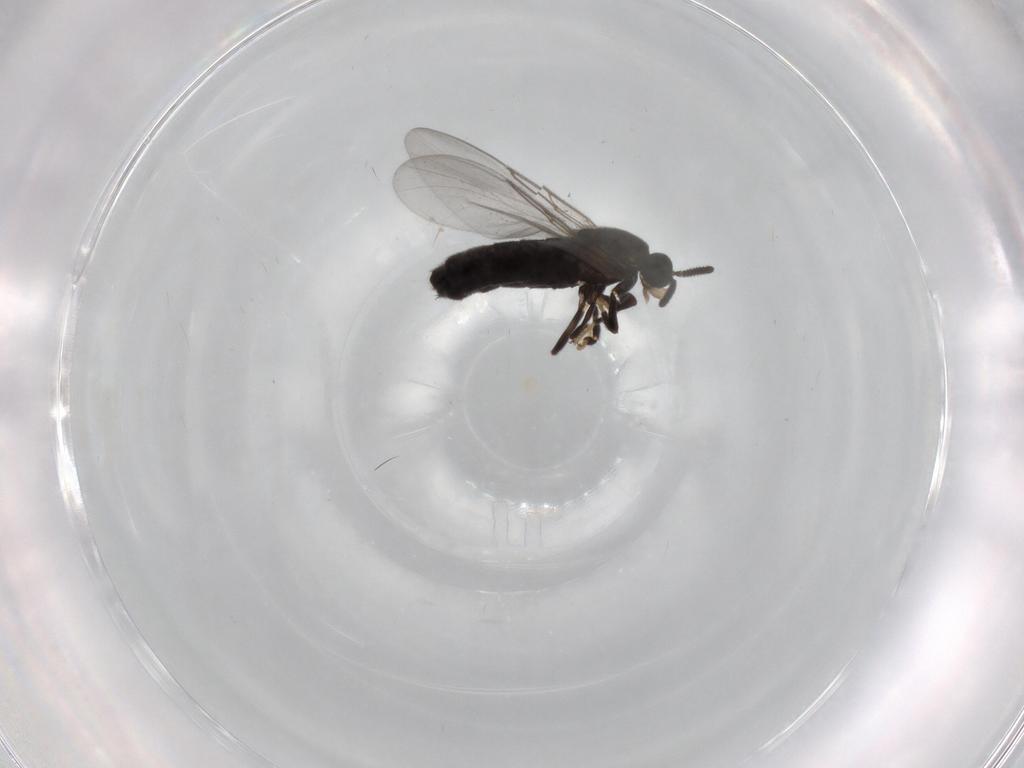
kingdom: Animalia
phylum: Arthropoda
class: Insecta
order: Diptera
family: Scatopsidae
